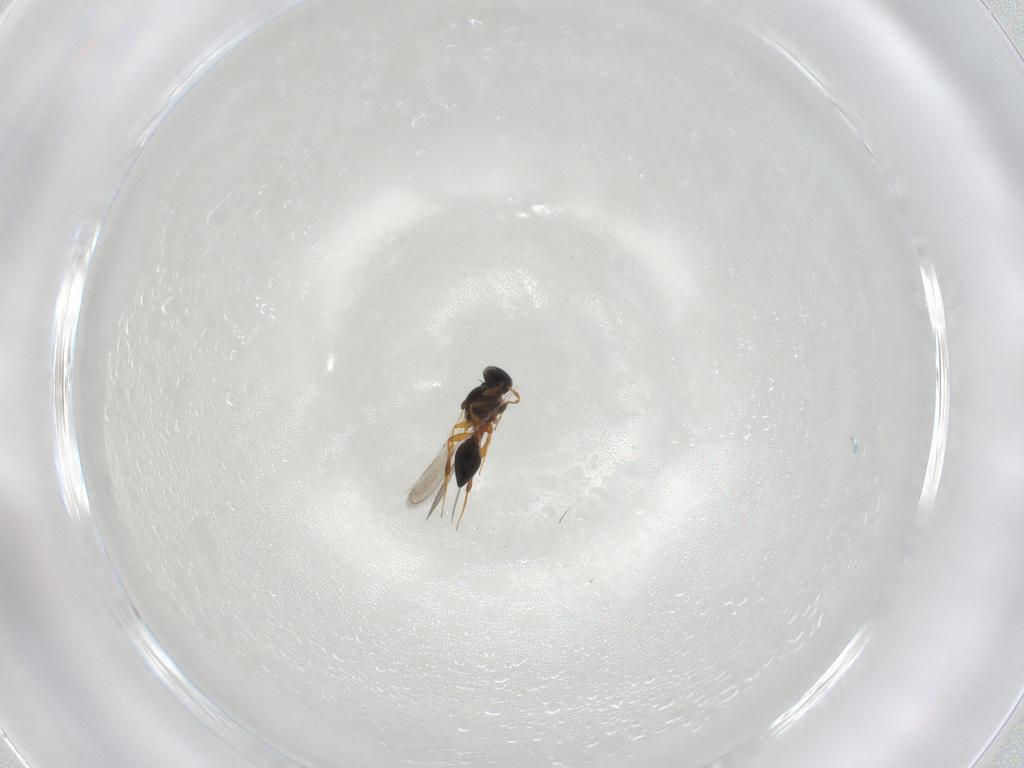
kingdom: Animalia
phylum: Arthropoda
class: Insecta
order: Hymenoptera
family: Platygastridae
